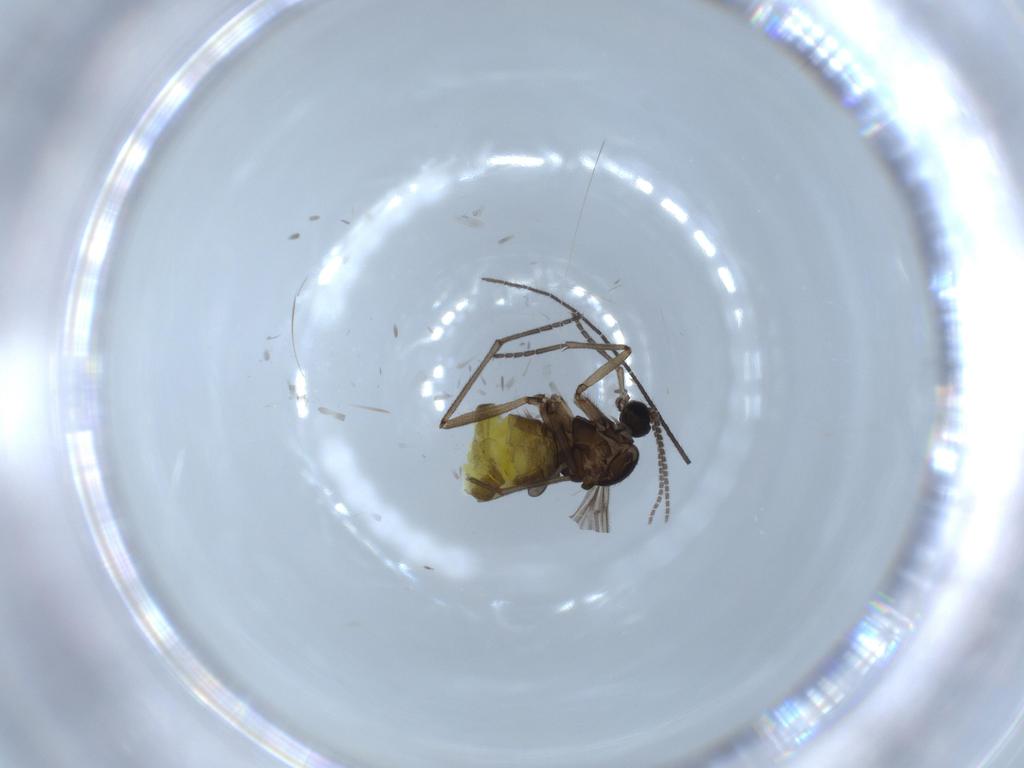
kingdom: Animalia
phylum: Arthropoda
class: Insecta
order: Diptera
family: Sciaridae
